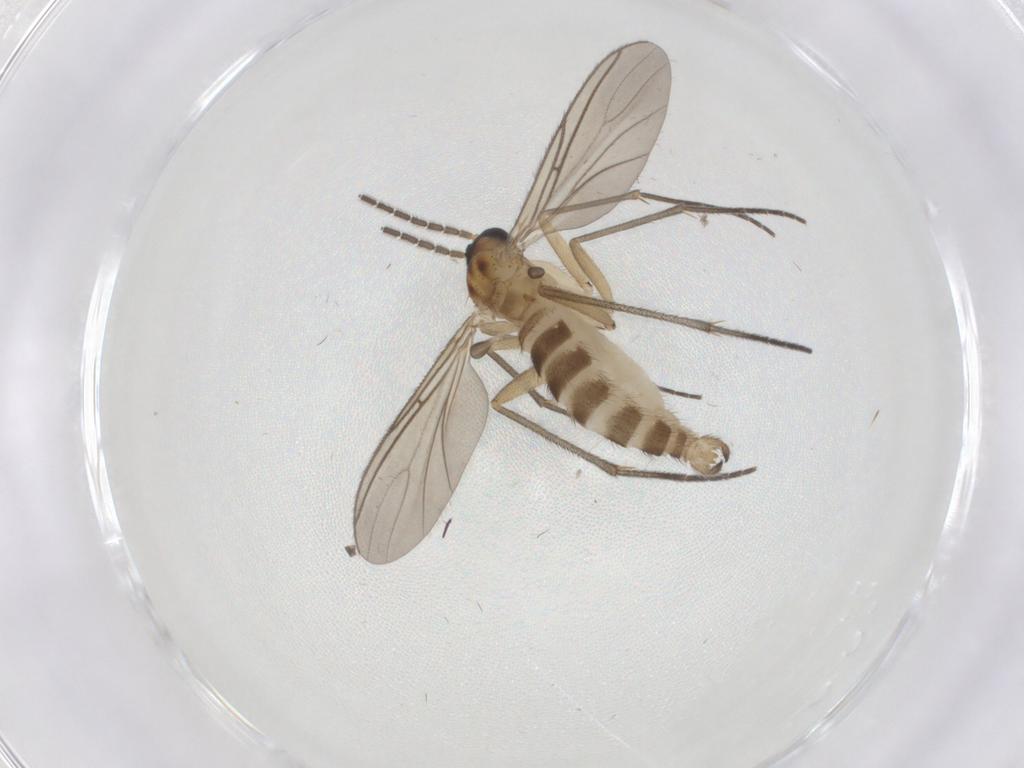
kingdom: Animalia
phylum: Arthropoda
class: Insecta
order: Diptera
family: Sciaridae
